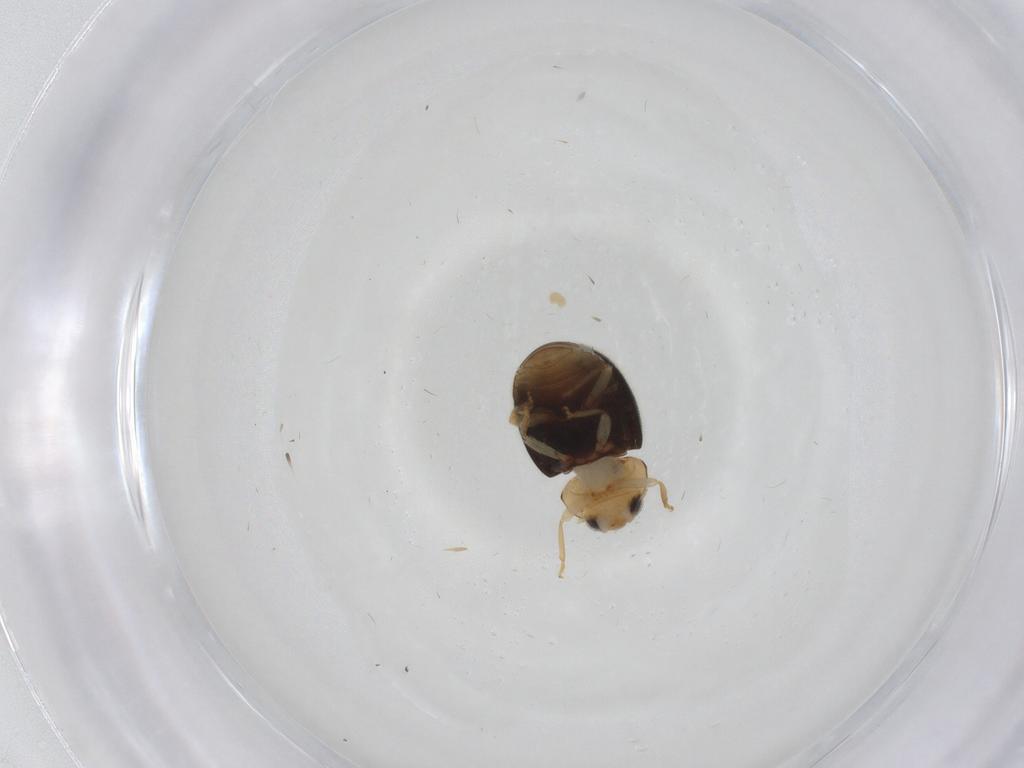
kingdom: Animalia
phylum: Arthropoda
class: Insecta
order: Coleoptera
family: Coccinellidae
